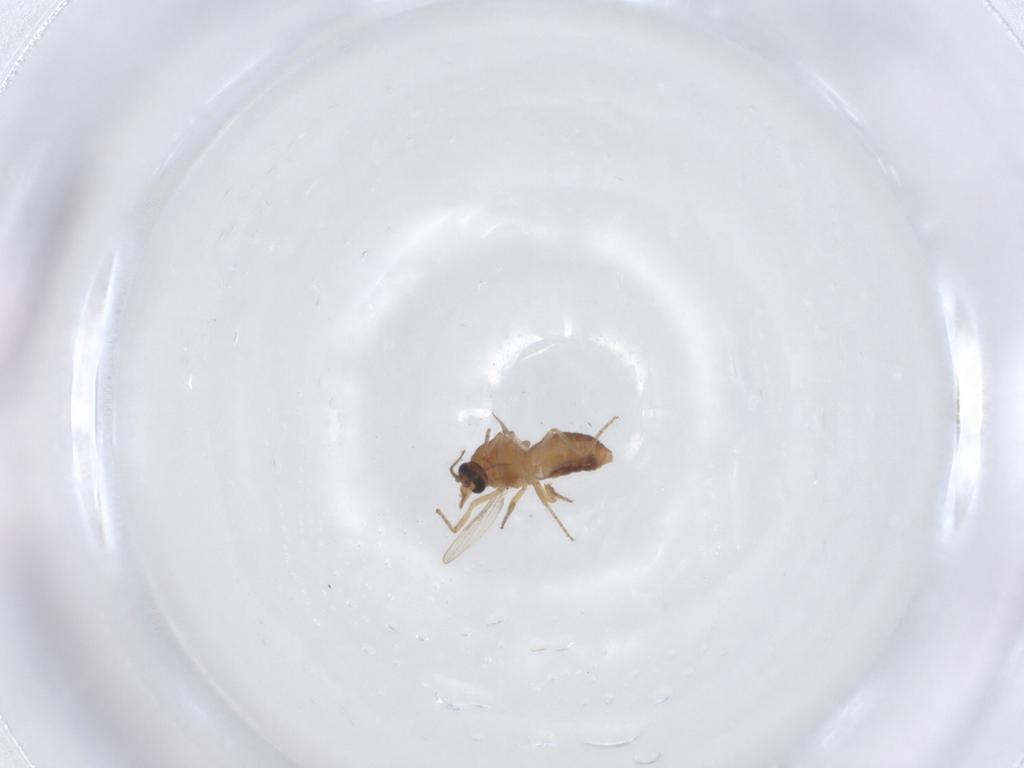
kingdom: Animalia
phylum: Arthropoda
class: Insecta
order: Diptera
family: Ceratopogonidae
